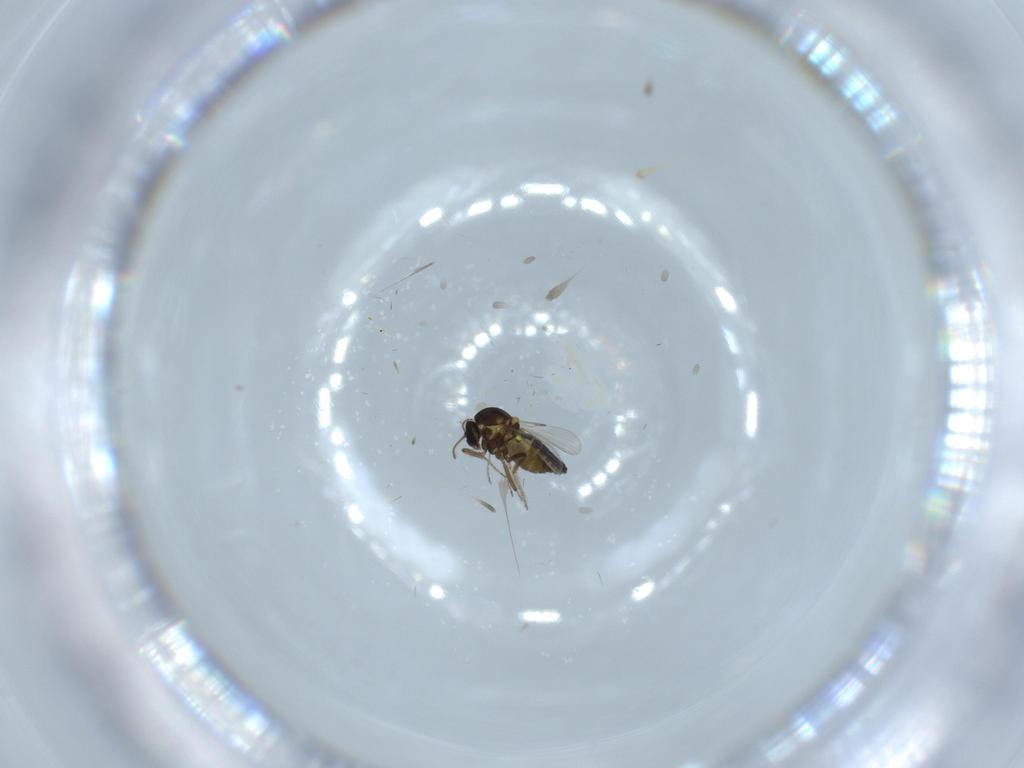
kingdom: Animalia
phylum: Arthropoda
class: Insecta
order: Diptera
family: Ceratopogonidae
